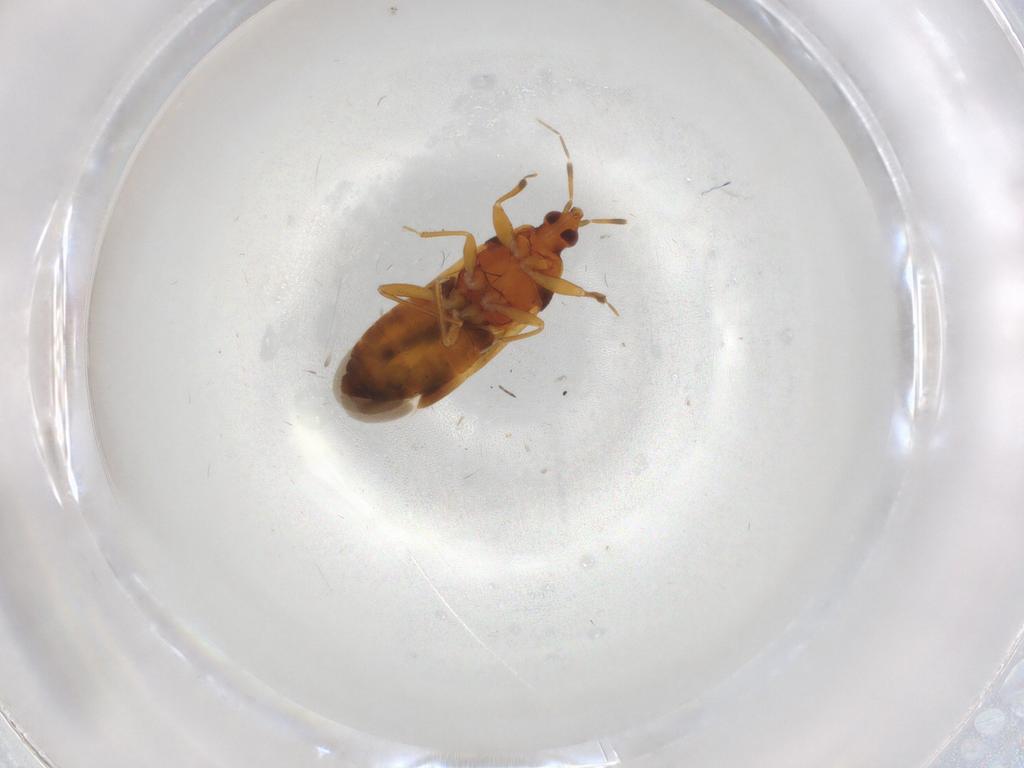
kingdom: Animalia
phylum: Arthropoda
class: Insecta
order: Hemiptera
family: Anthocoridae
